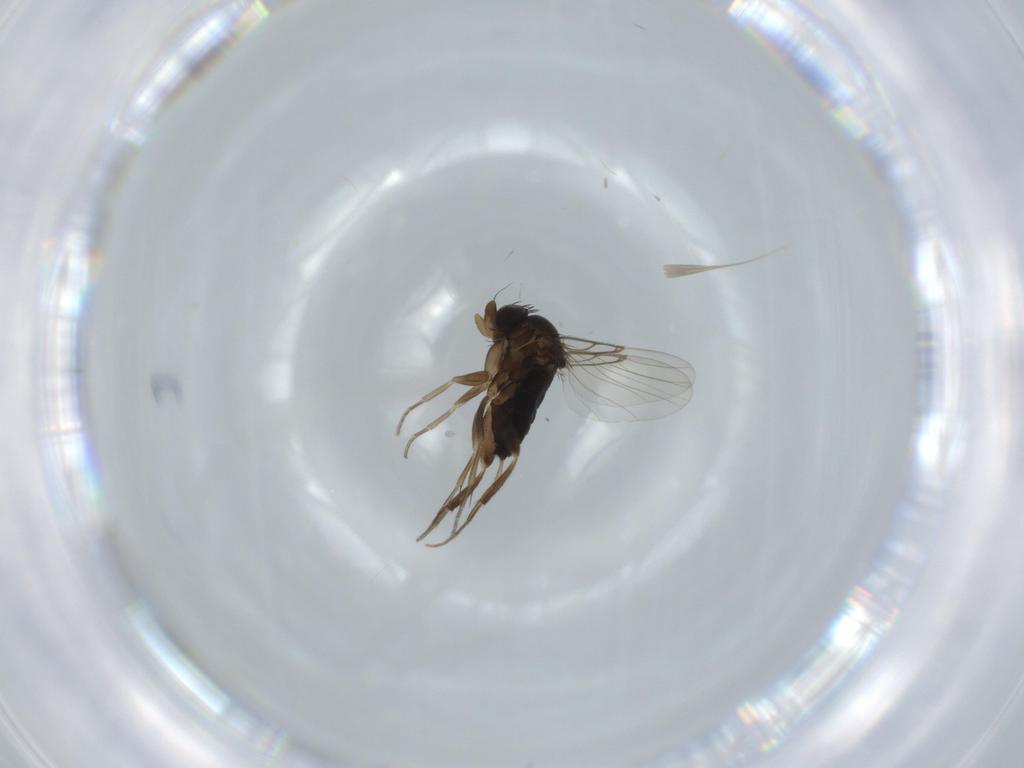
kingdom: Animalia
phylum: Arthropoda
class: Insecta
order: Diptera
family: Phoridae
